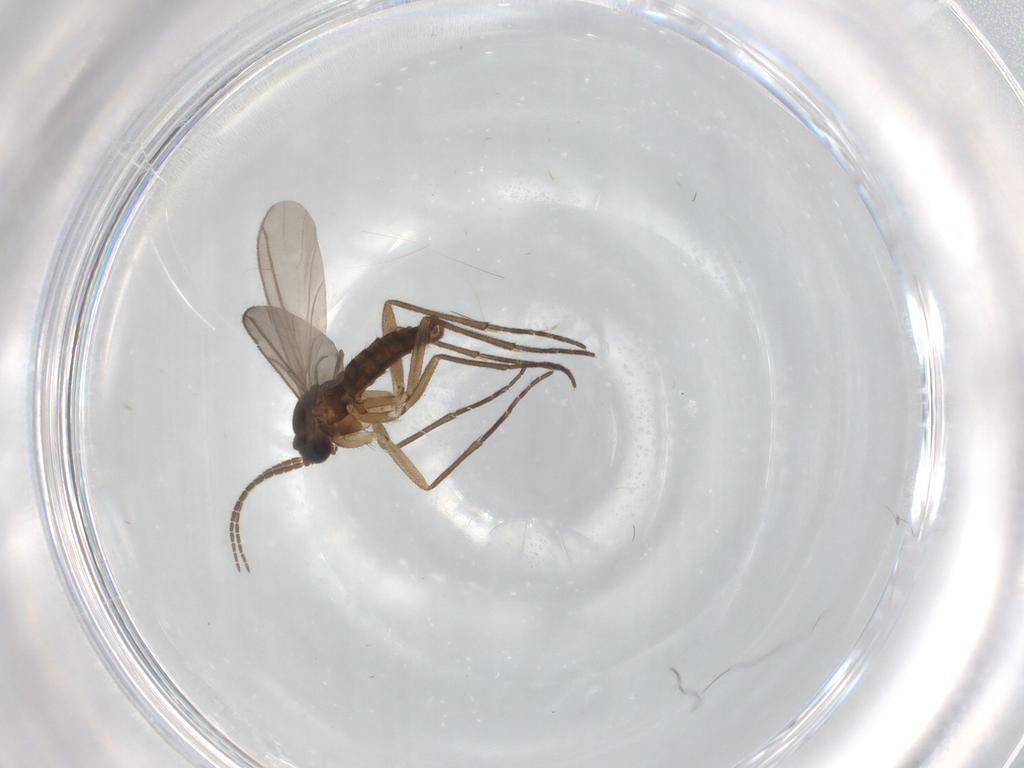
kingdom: Animalia
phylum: Arthropoda
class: Insecta
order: Diptera
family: Sciaridae
